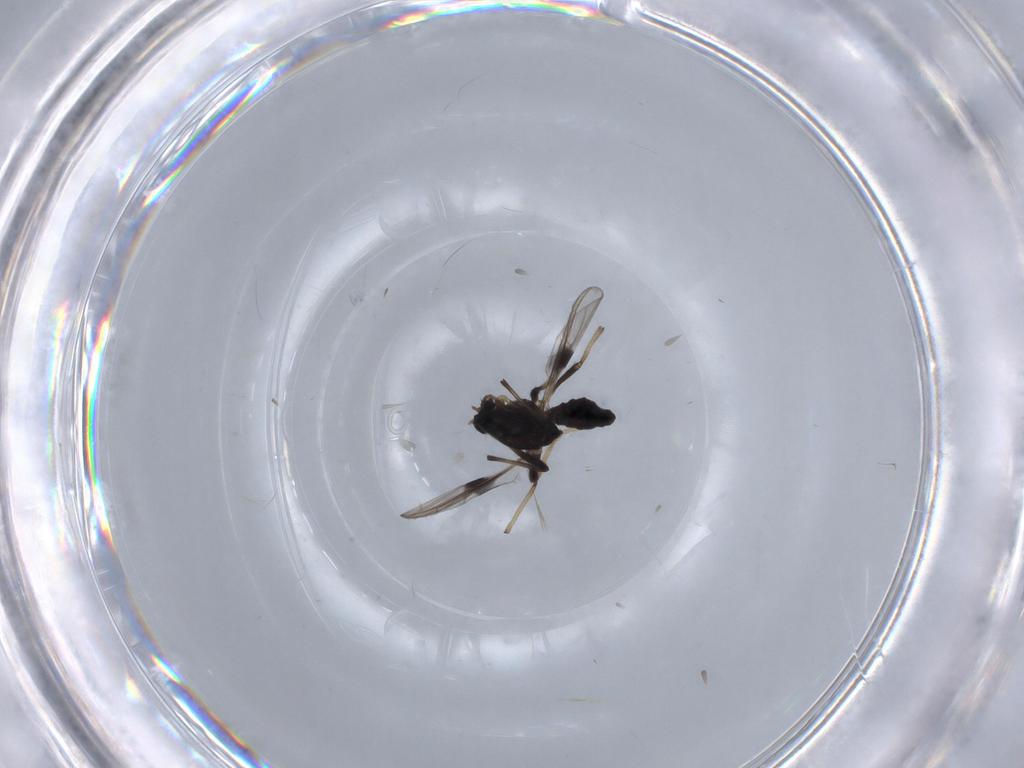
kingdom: Animalia
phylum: Arthropoda
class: Insecta
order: Diptera
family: Chironomidae
